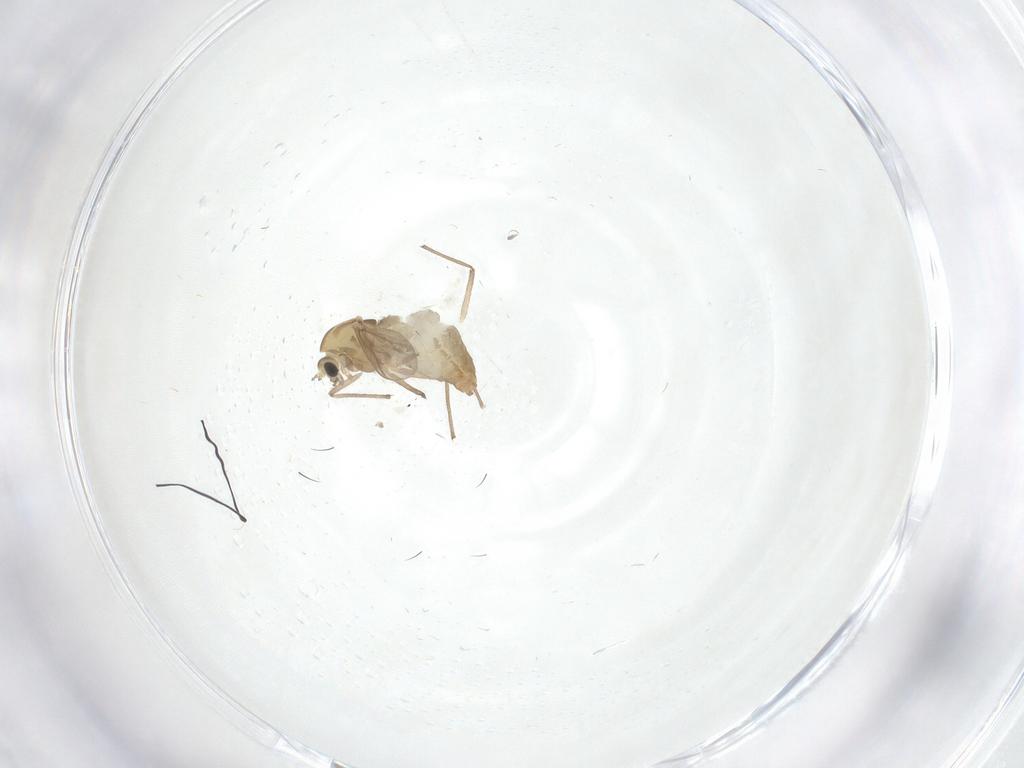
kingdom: Animalia
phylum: Arthropoda
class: Insecta
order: Diptera
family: Chironomidae
